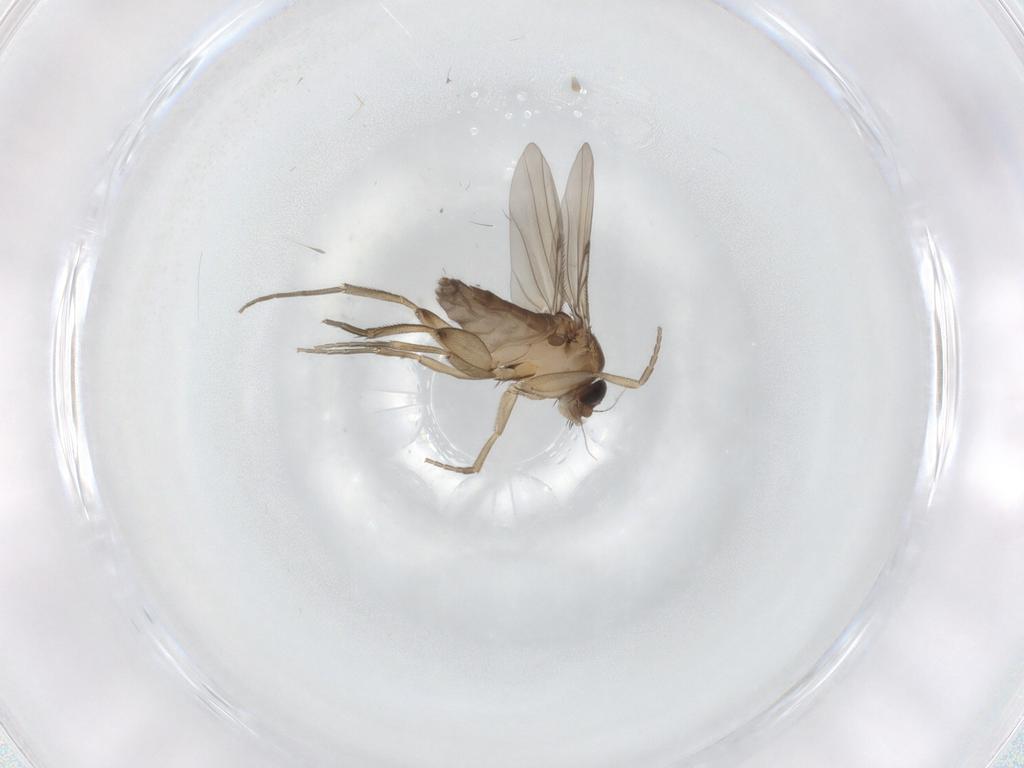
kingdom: Animalia
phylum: Arthropoda
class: Insecta
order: Diptera
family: Phoridae
